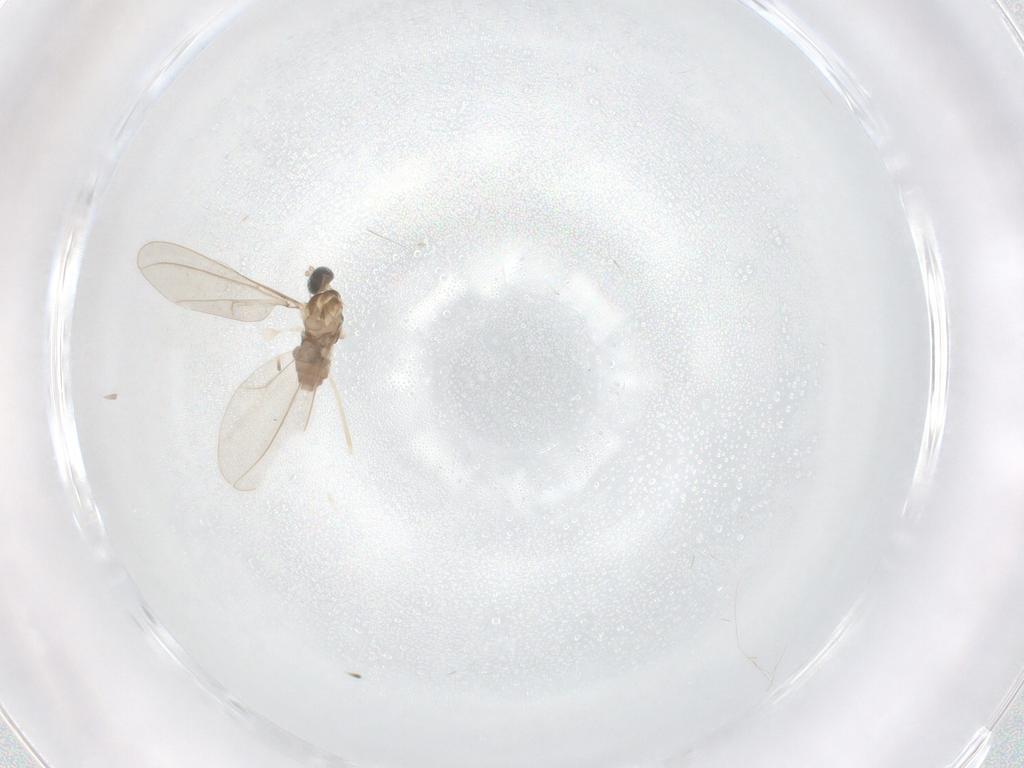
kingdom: Animalia
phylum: Arthropoda
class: Insecta
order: Diptera
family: Cecidomyiidae
